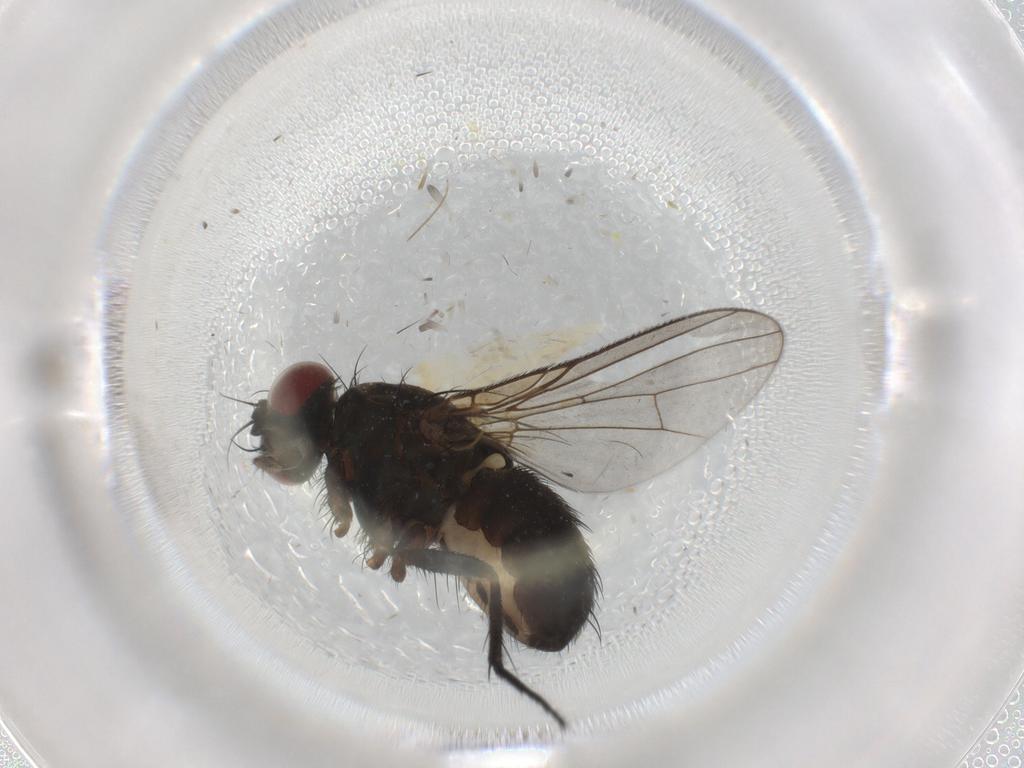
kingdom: Animalia
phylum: Arthropoda
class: Insecta
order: Diptera
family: Muscidae
